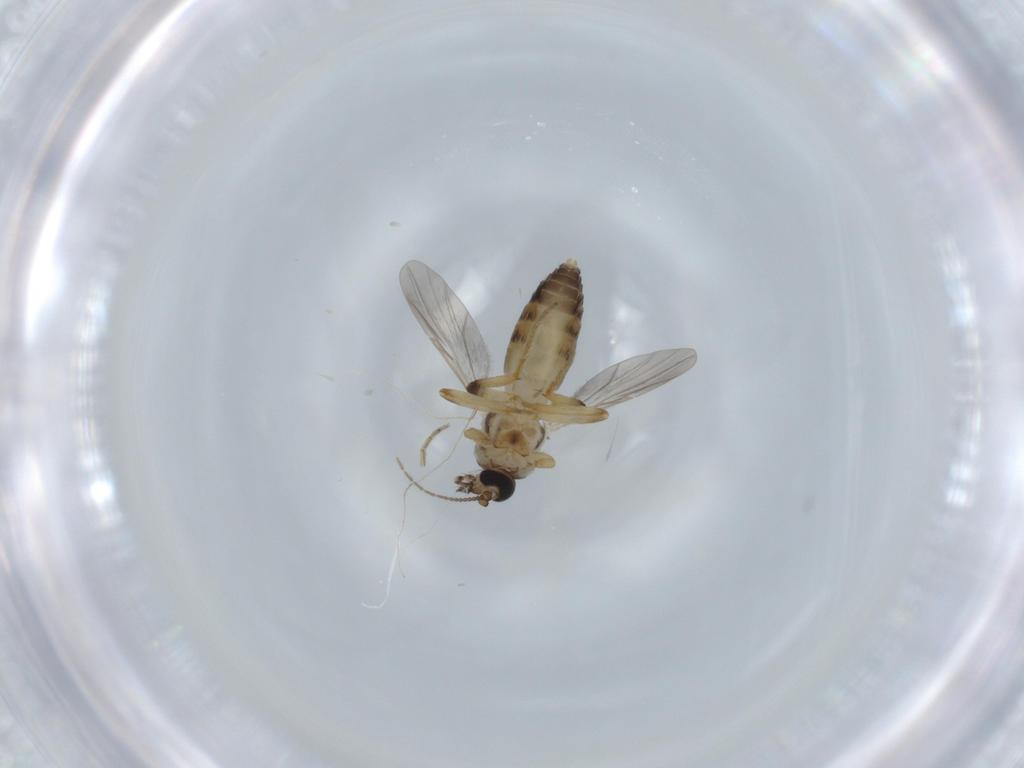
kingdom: Animalia
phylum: Arthropoda
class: Insecta
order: Diptera
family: Ceratopogonidae
